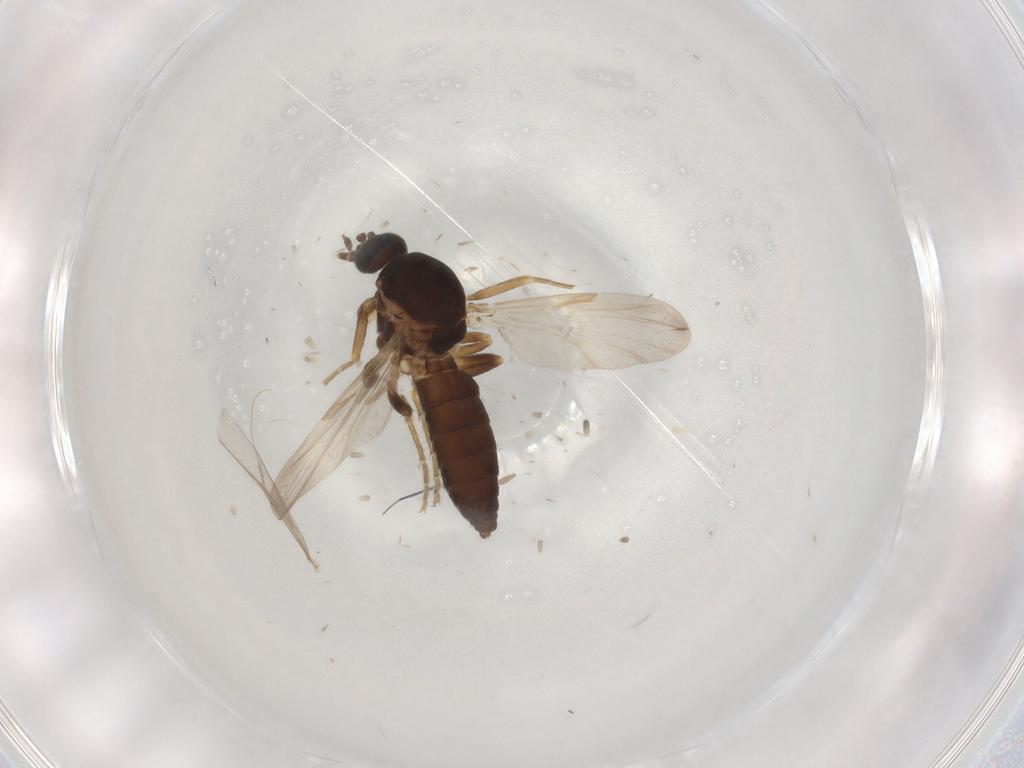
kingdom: Animalia
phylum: Arthropoda
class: Insecta
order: Diptera
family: Ceratopogonidae
